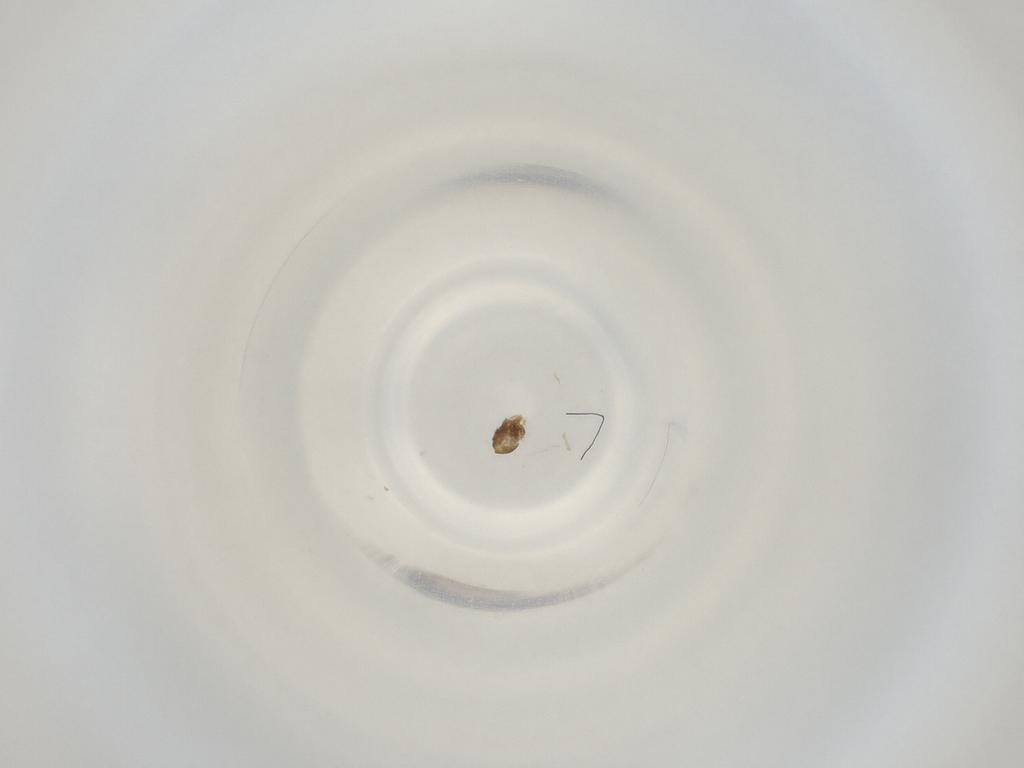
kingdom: Animalia
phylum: Arthropoda
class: Insecta
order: Diptera
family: Cecidomyiidae
